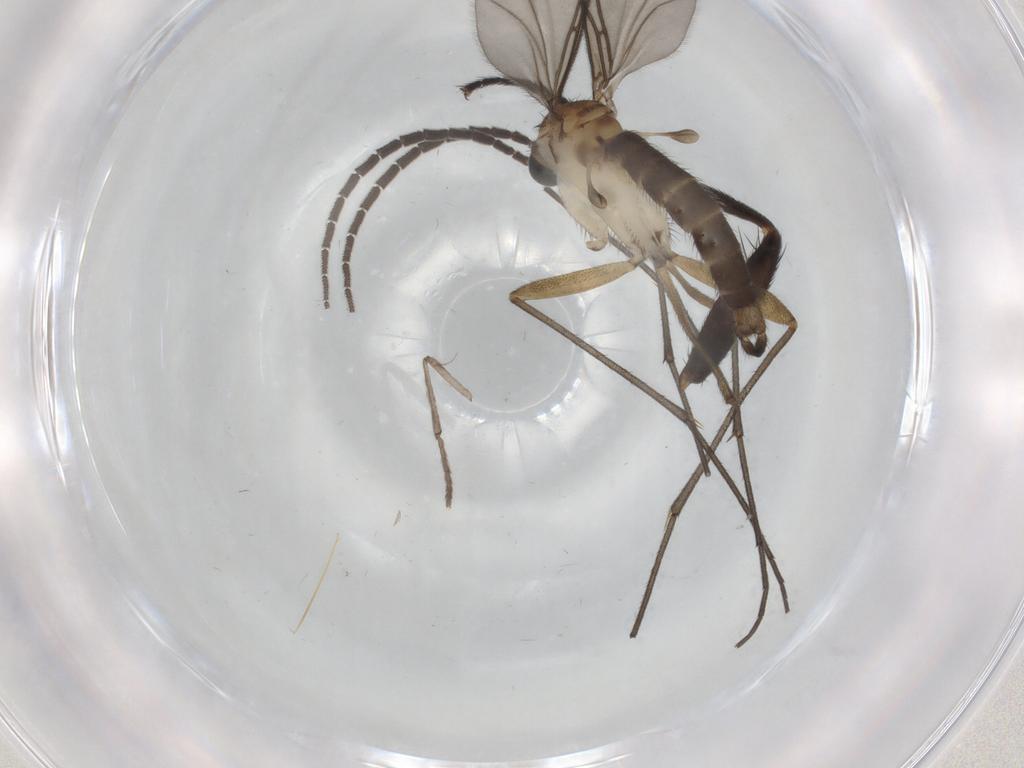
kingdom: Animalia
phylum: Arthropoda
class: Insecta
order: Diptera
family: Sciaridae
